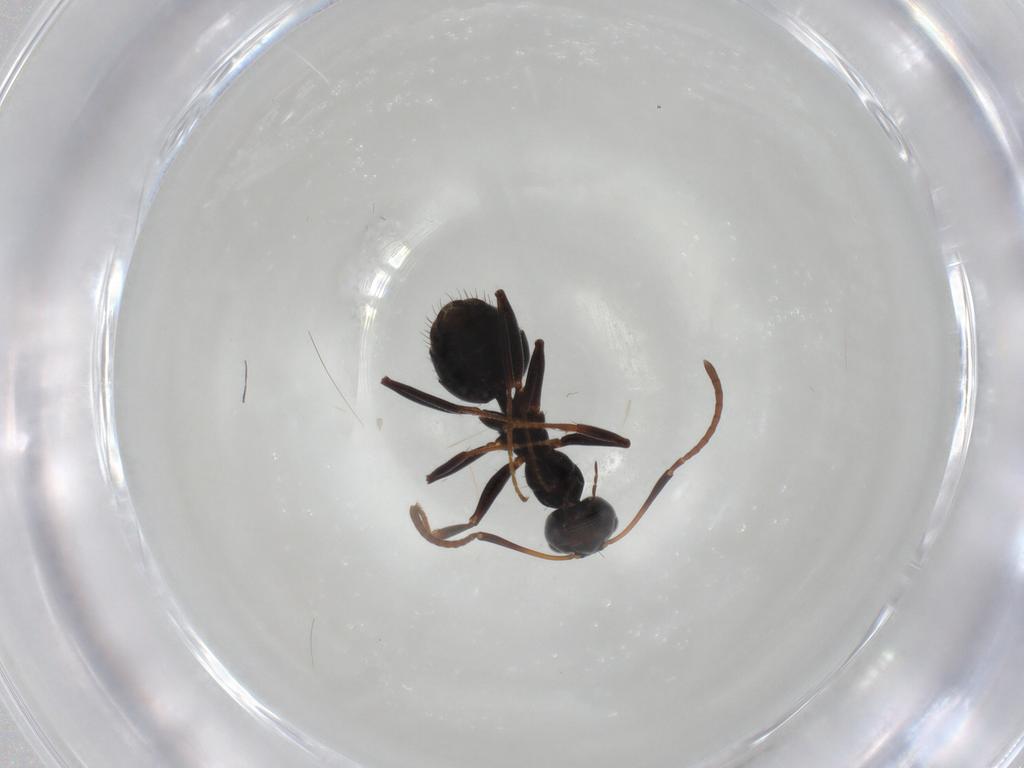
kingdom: Animalia
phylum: Arthropoda
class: Insecta
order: Hymenoptera
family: Formicidae
